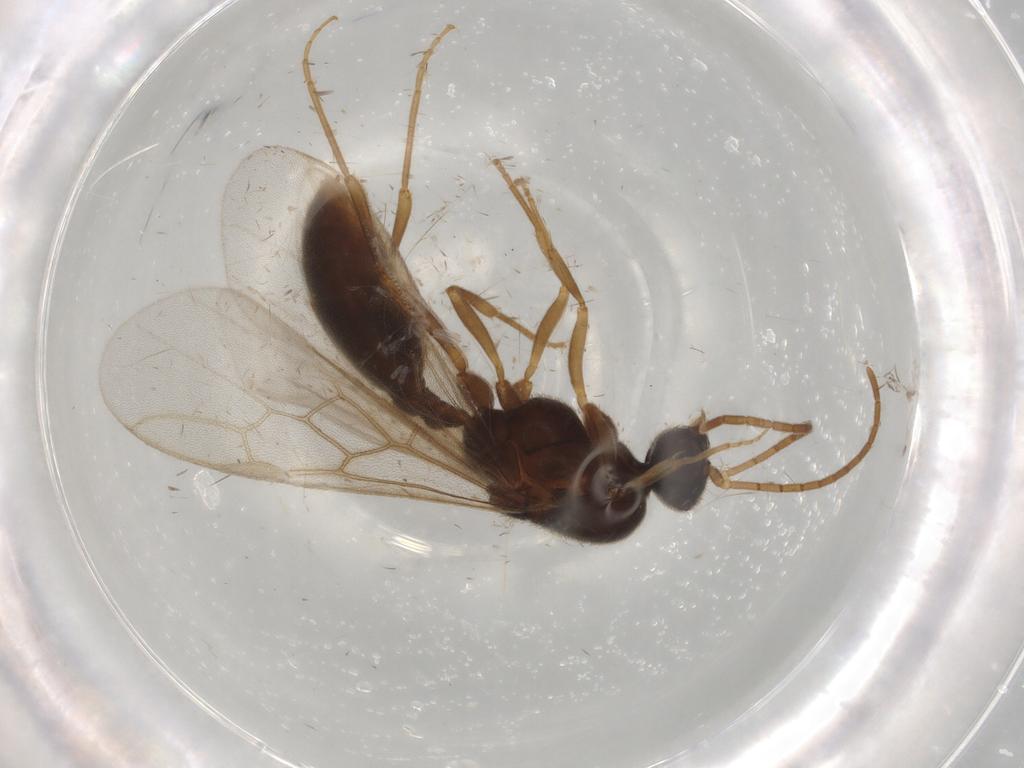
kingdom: Animalia
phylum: Arthropoda
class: Insecta
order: Hymenoptera
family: Formicidae
